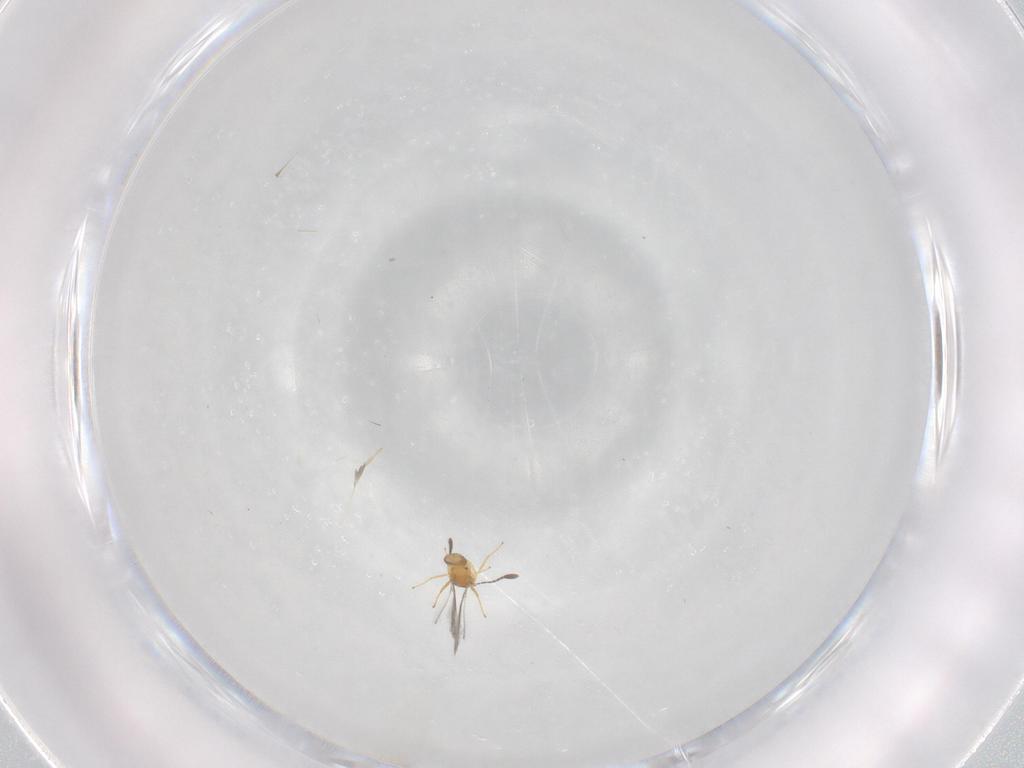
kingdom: Animalia
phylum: Arthropoda
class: Insecta
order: Hymenoptera
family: Mymaridae
